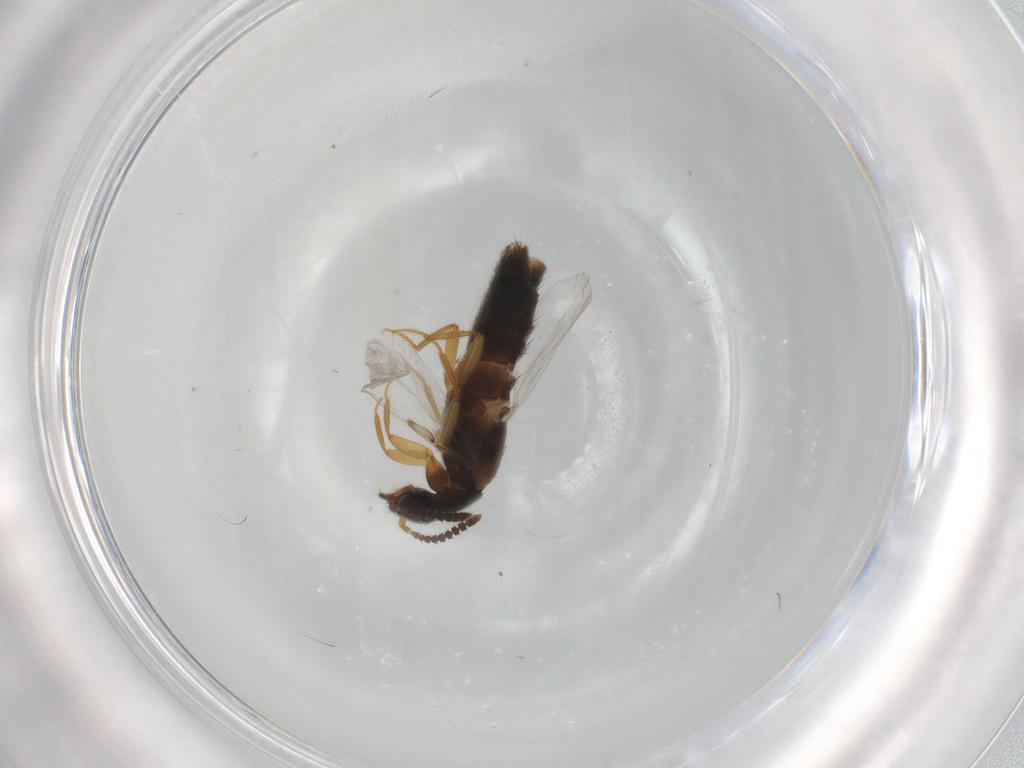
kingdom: Animalia
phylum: Arthropoda
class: Insecta
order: Coleoptera
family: Staphylinidae
